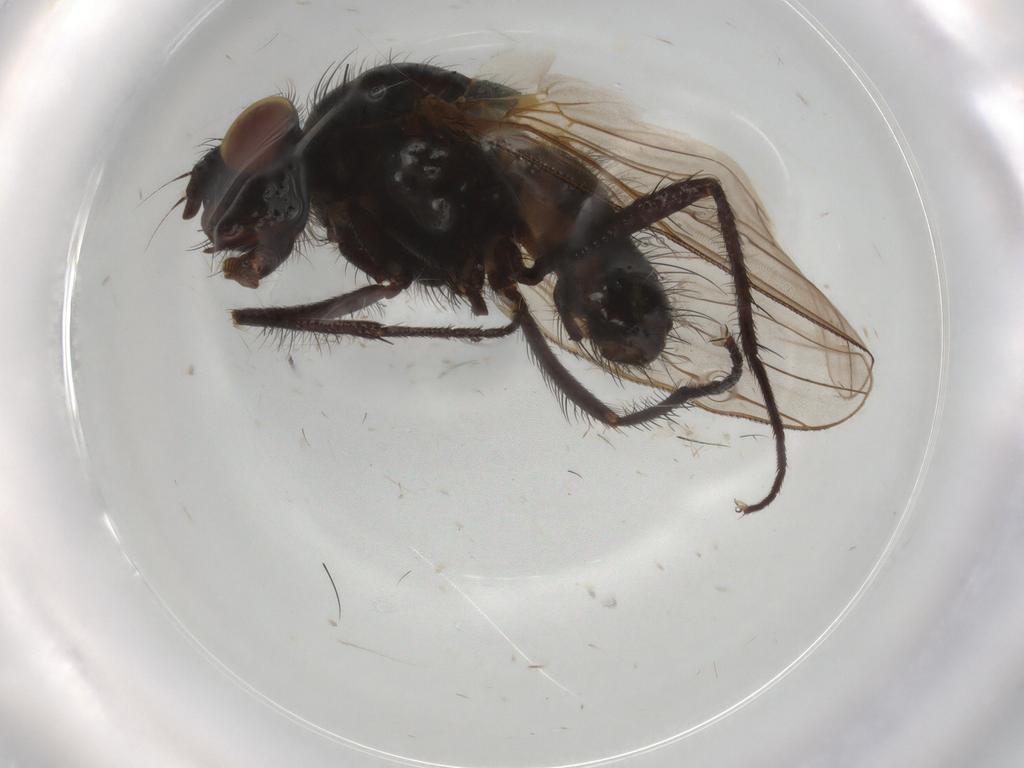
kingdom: Animalia
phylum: Arthropoda
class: Insecta
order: Diptera
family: Anthomyiidae
